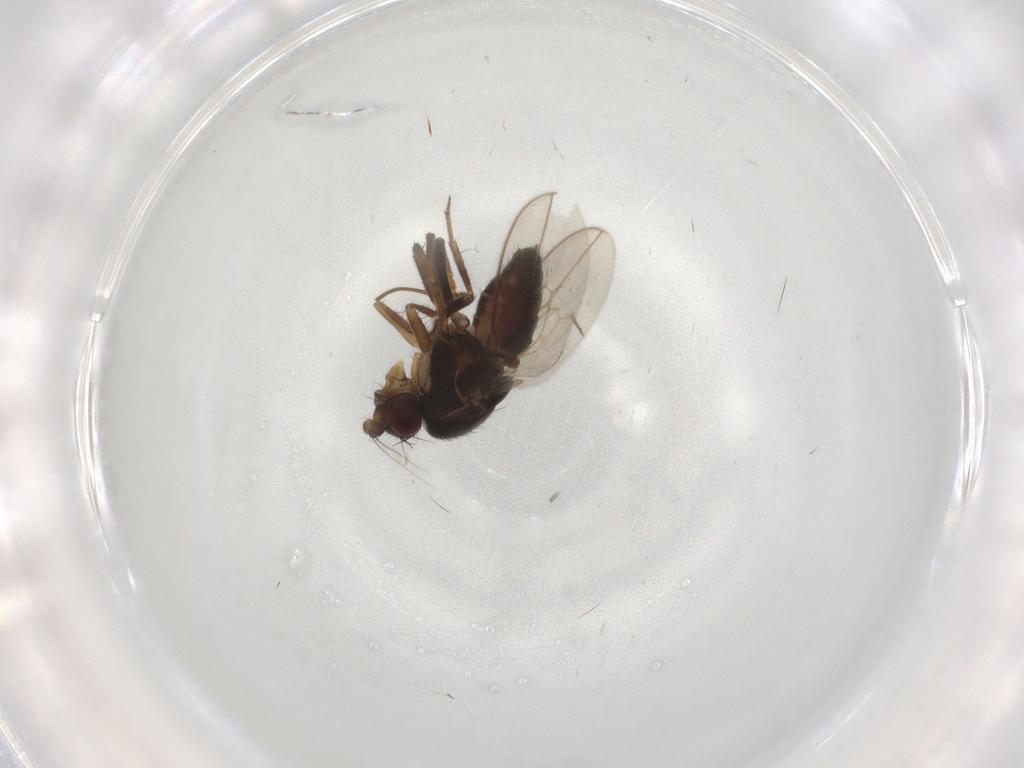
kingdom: Animalia
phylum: Arthropoda
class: Insecta
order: Diptera
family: Sphaeroceridae
